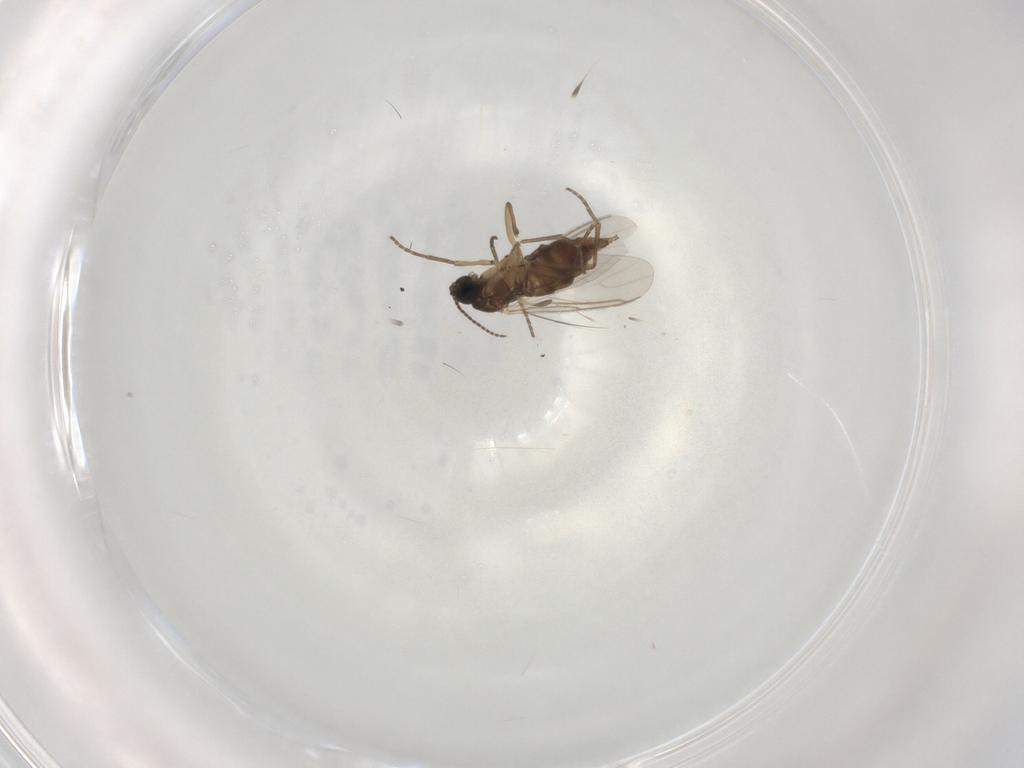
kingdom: Animalia
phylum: Arthropoda
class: Insecta
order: Diptera
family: Sciaridae
